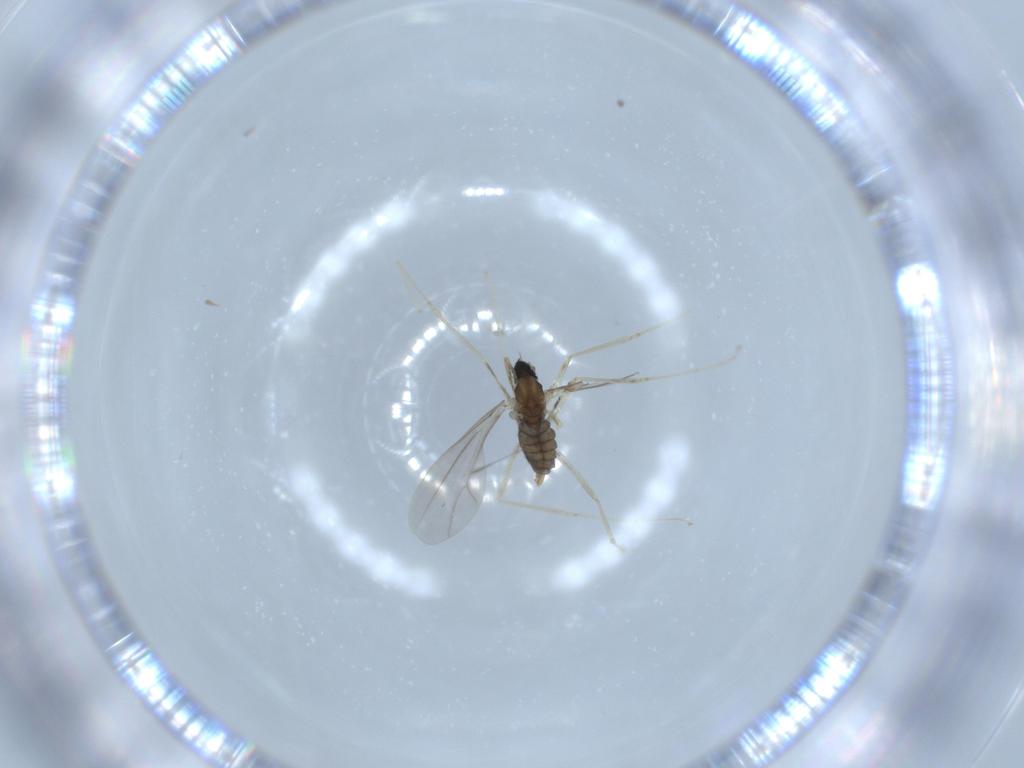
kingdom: Animalia
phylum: Arthropoda
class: Insecta
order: Diptera
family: Cecidomyiidae
